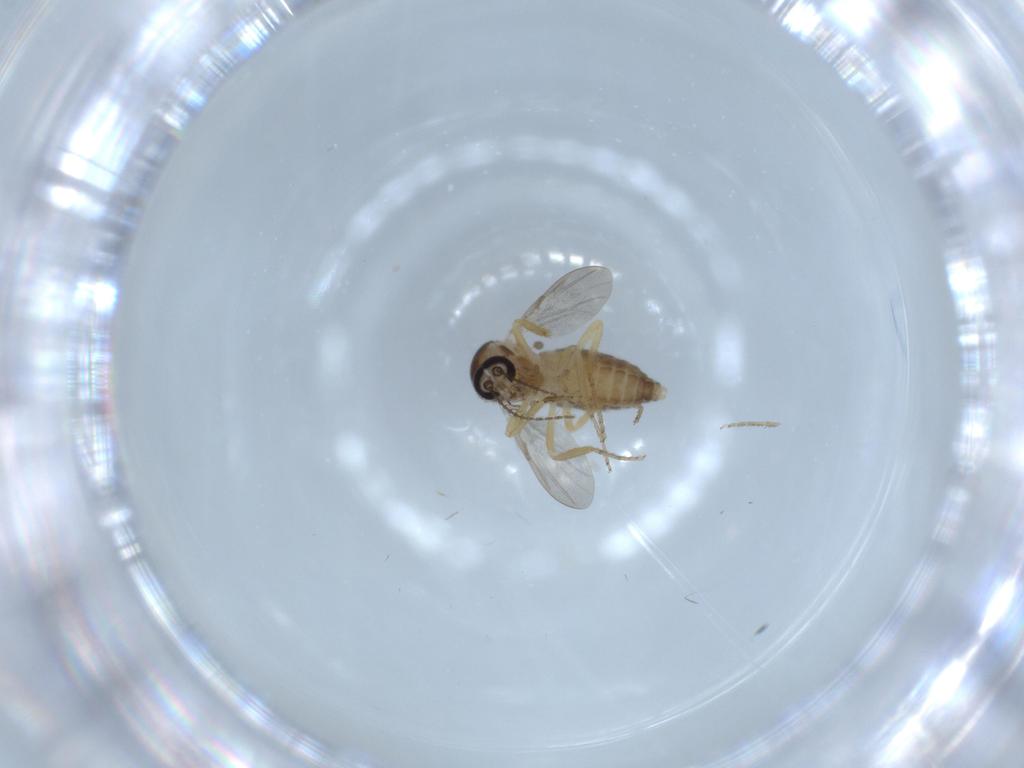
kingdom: Animalia
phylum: Arthropoda
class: Insecta
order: Diptera
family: Ceratopogonidae
